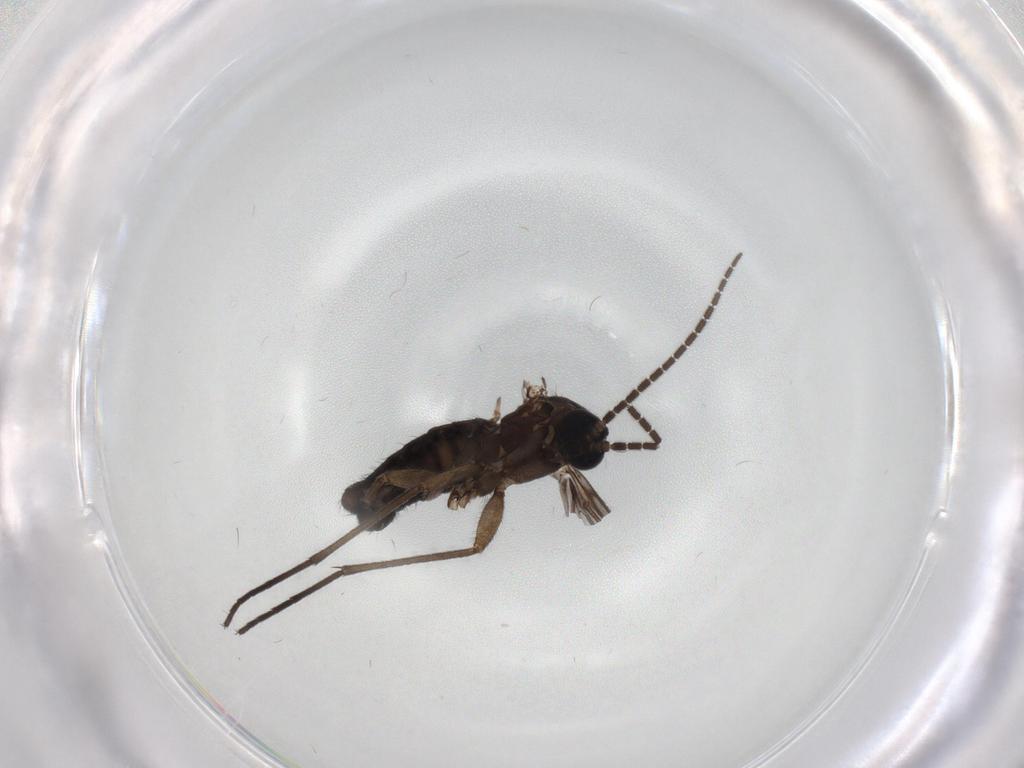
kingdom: Animalia
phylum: Arthropoda
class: Insecta
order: Diptera
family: Sciaridae
